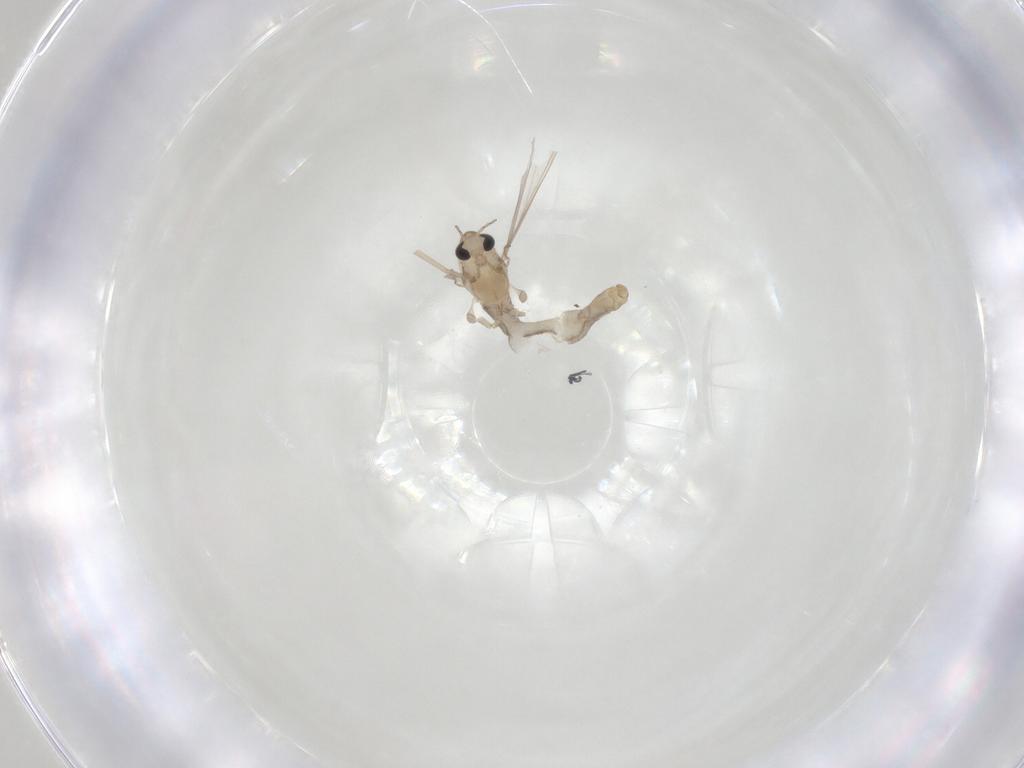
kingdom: Animalia
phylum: Arthropoda
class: Insecta
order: Diptera
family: Chironomidae
